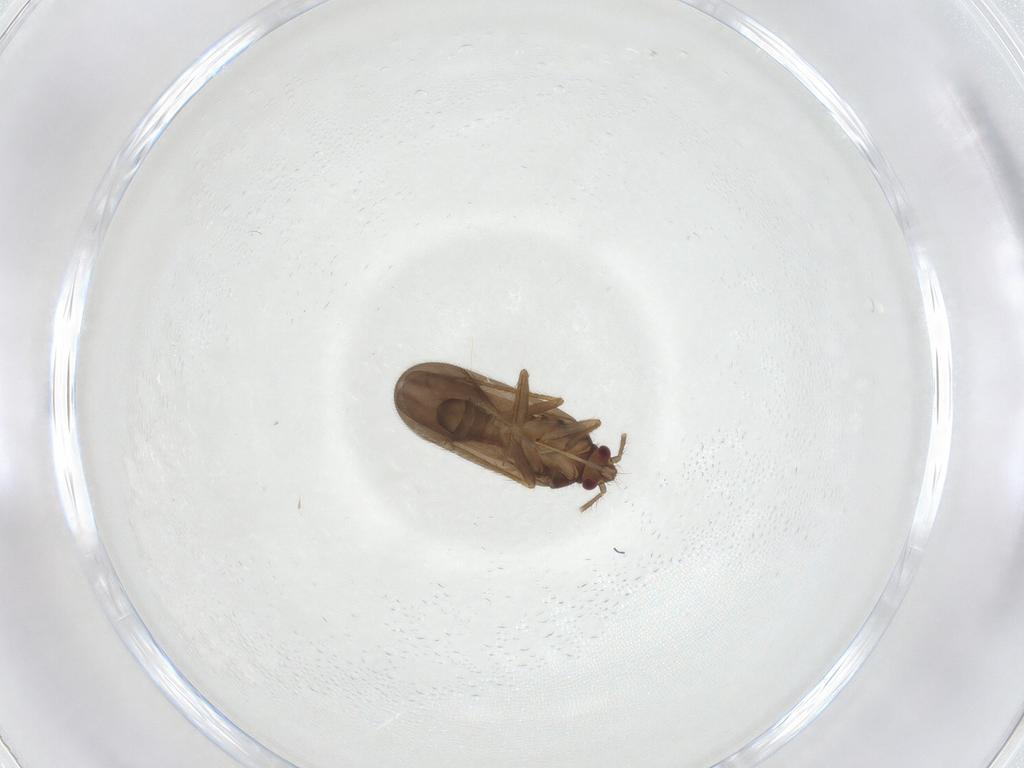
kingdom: Animalia
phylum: Arthropoda
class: Insecta
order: Hemiptera
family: Ceratocombidae
